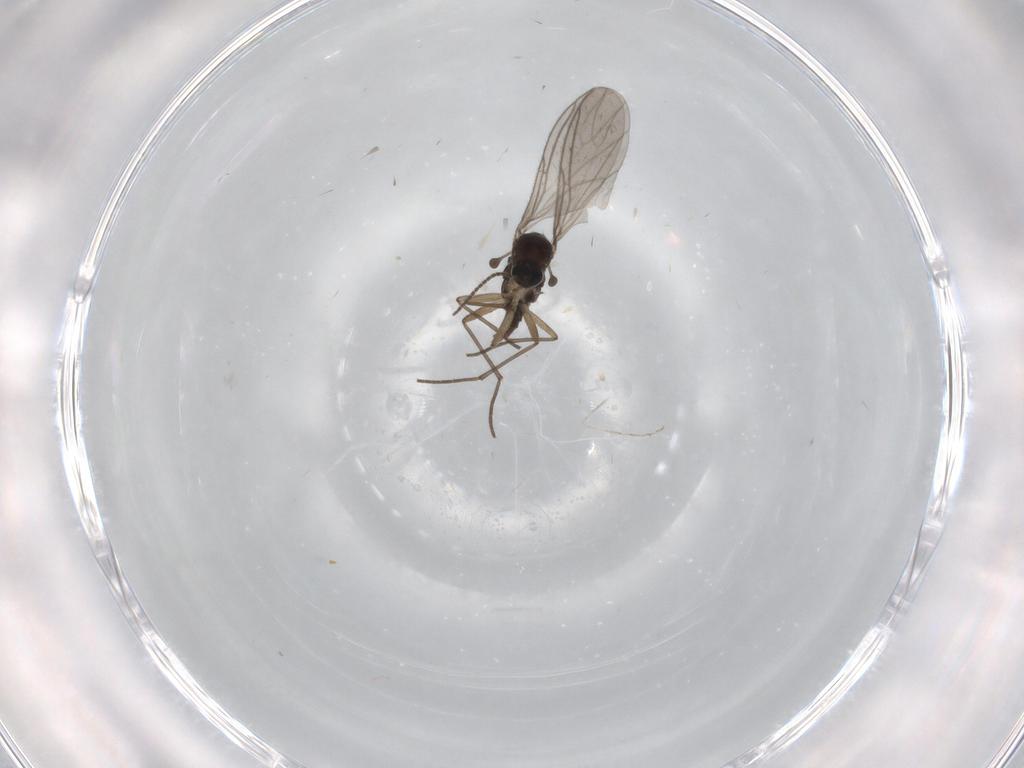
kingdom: Animalia
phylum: Arthropoda
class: Insecta
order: Diptera
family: Sciaridae
